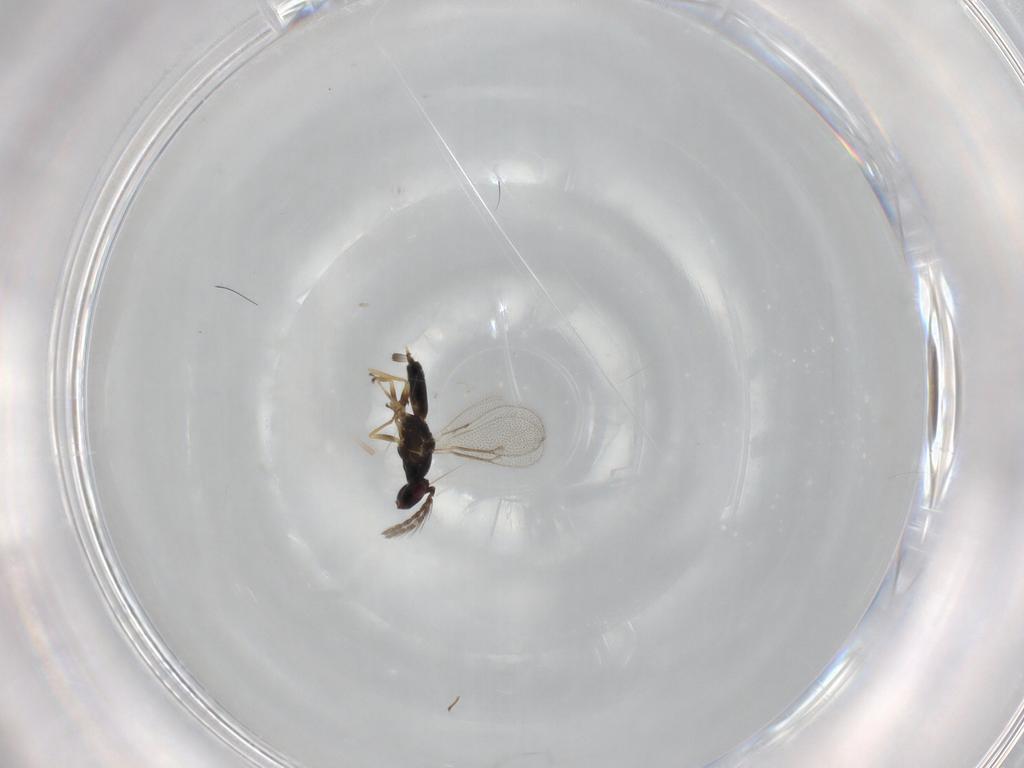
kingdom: Animalia
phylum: Arthropoda
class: Insecta
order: Hymenoptera
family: Eulophidae
